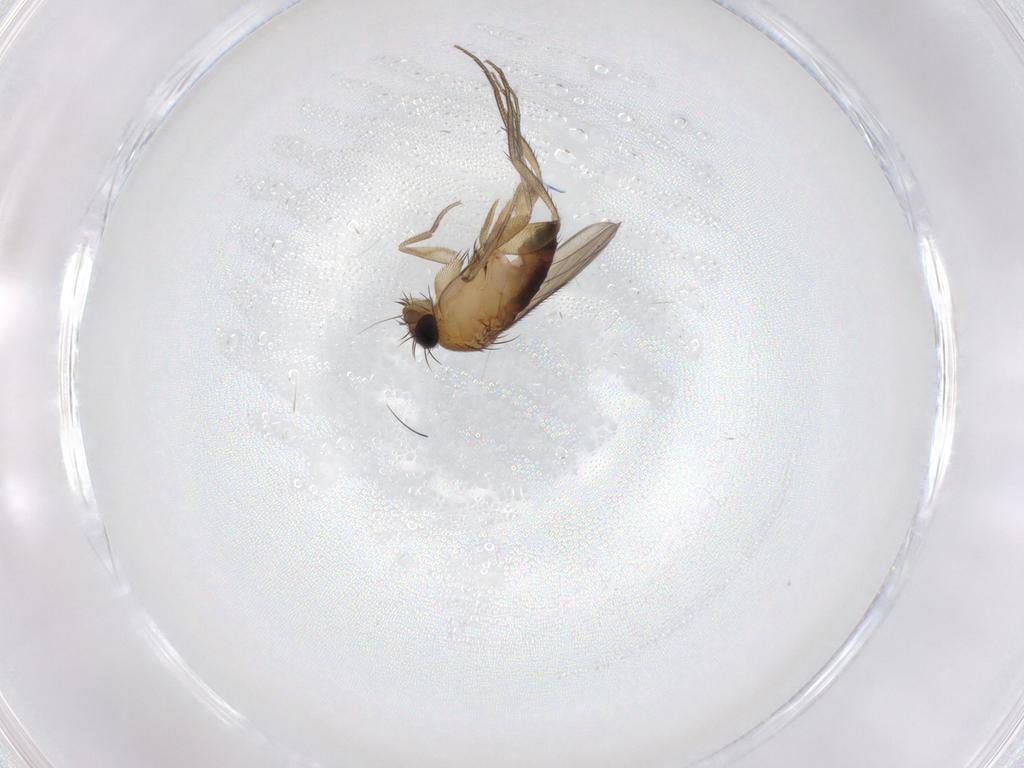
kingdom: Animalia
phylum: Arthropoda
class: Insecta
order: Diptera
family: Phoridae
